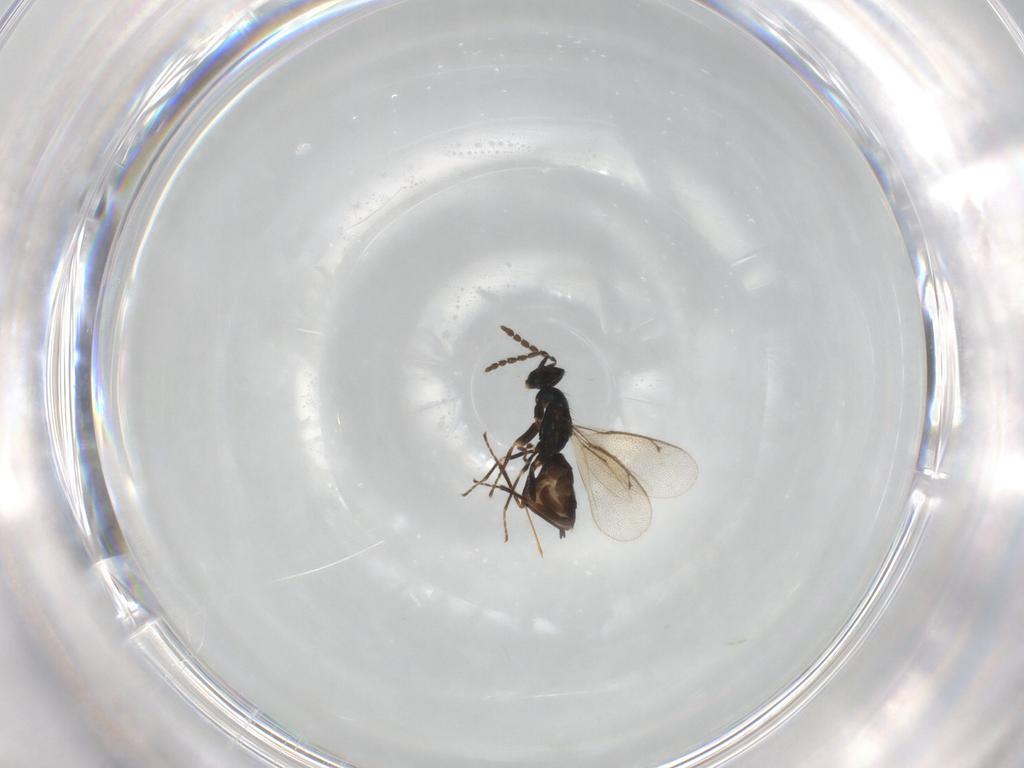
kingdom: Animalia
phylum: Arthropoda
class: Insecta
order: Hymenoptera
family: Eulophidae
